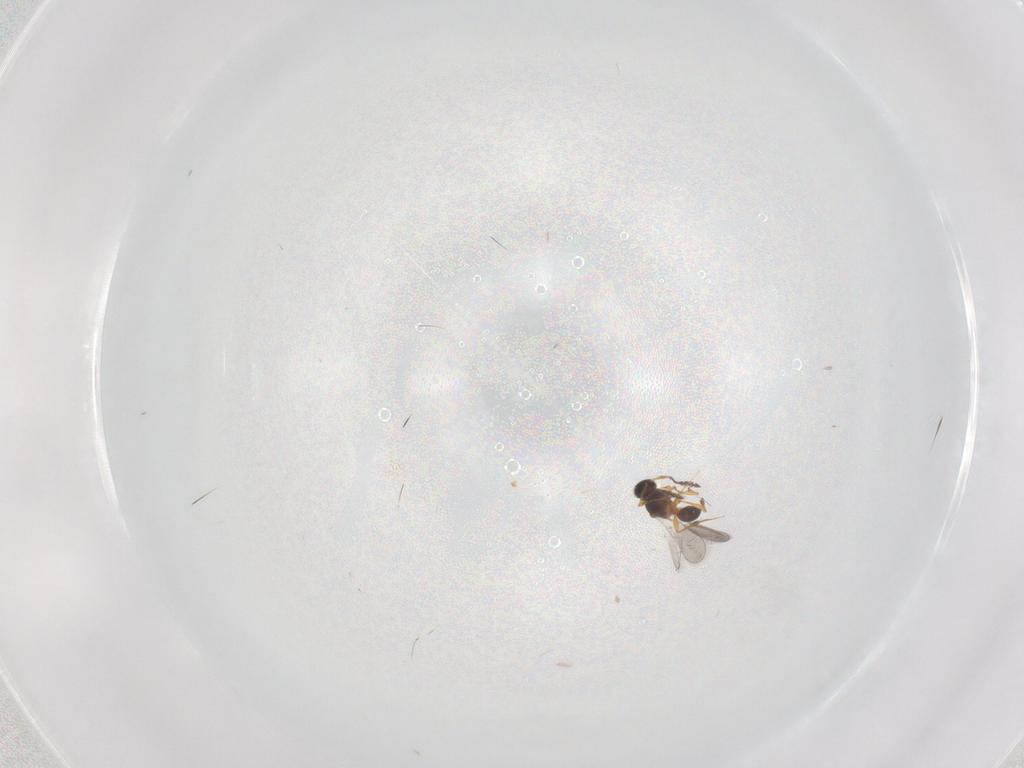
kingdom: Animalia
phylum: Arthropoda
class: Insecta
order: Hymenoptera
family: Platygastridae
